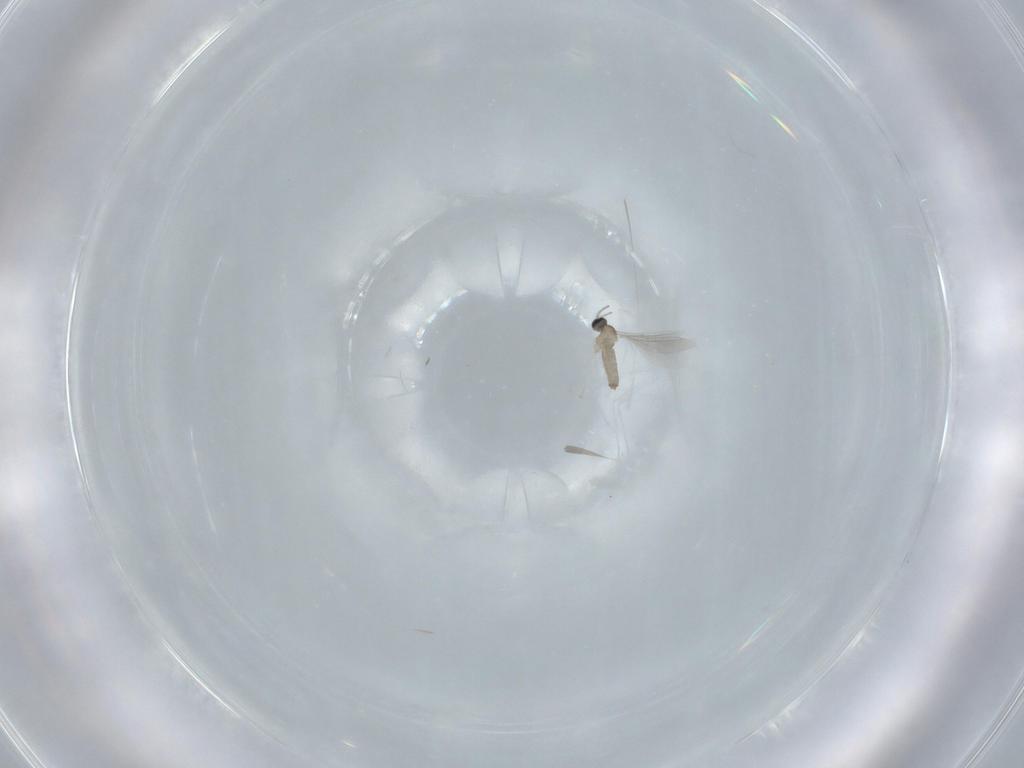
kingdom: Animalia
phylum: Arthropoda
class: Insecta
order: Diptera
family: Cecidomyiidae
